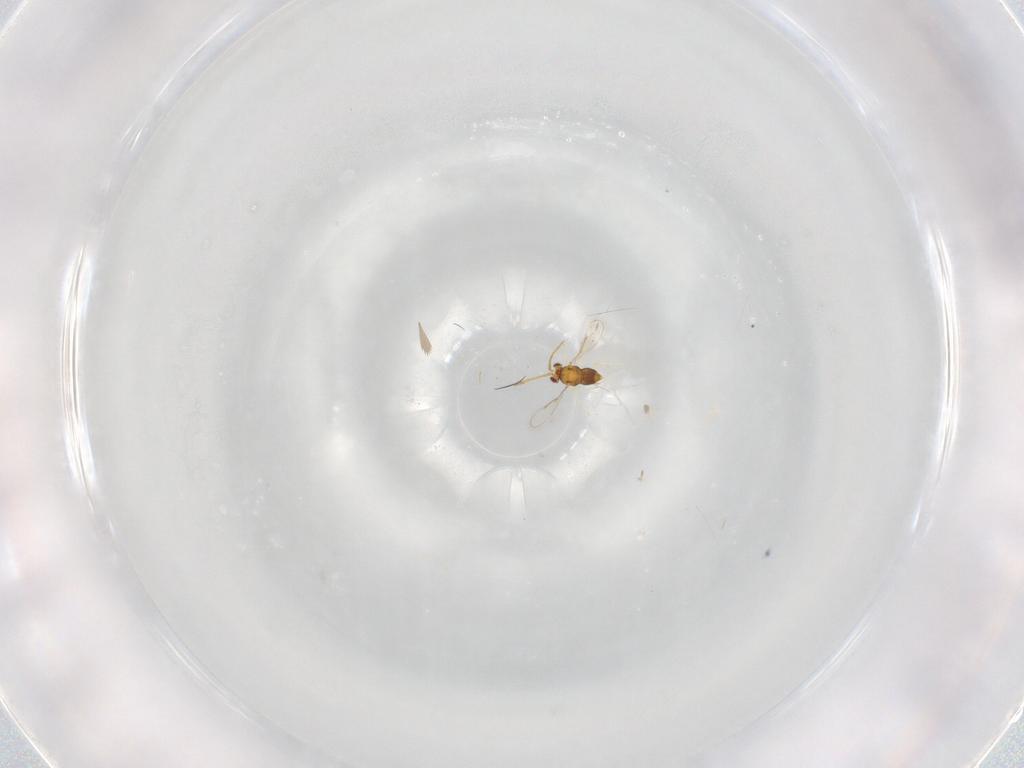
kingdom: Animalia
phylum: Arthropoda
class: Insecta
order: Hymenoptera
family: Aphelinidae
